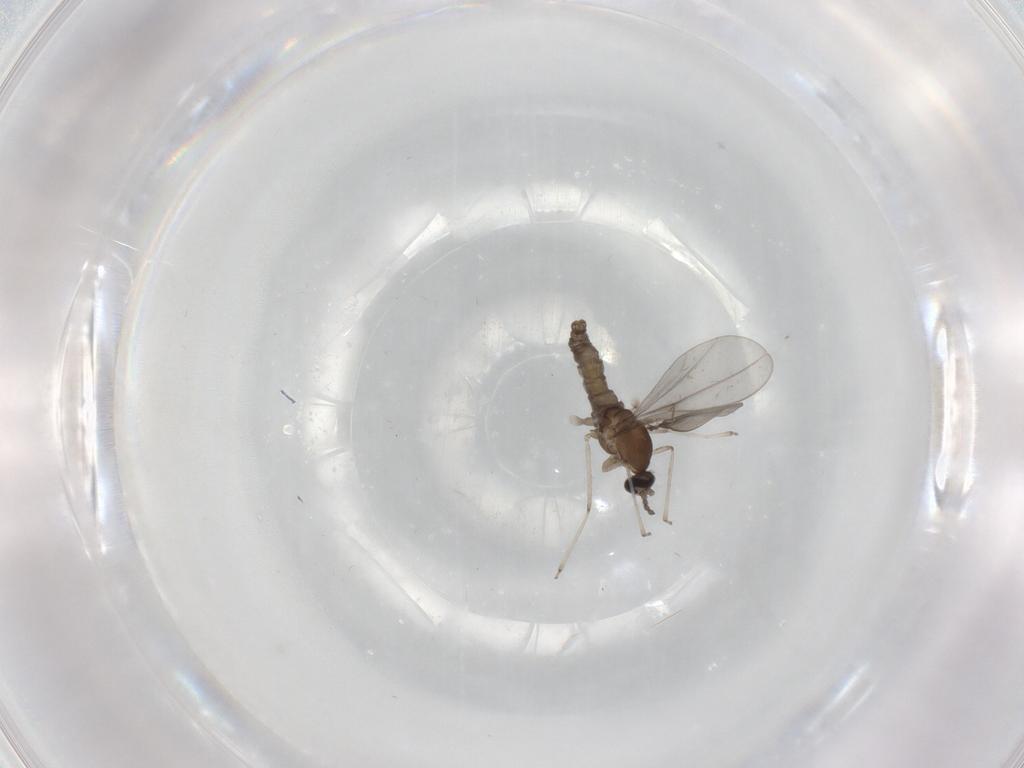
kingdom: Animalia
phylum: Arthropoda
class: Insecta
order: Diptera
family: Cecidomyiidae
